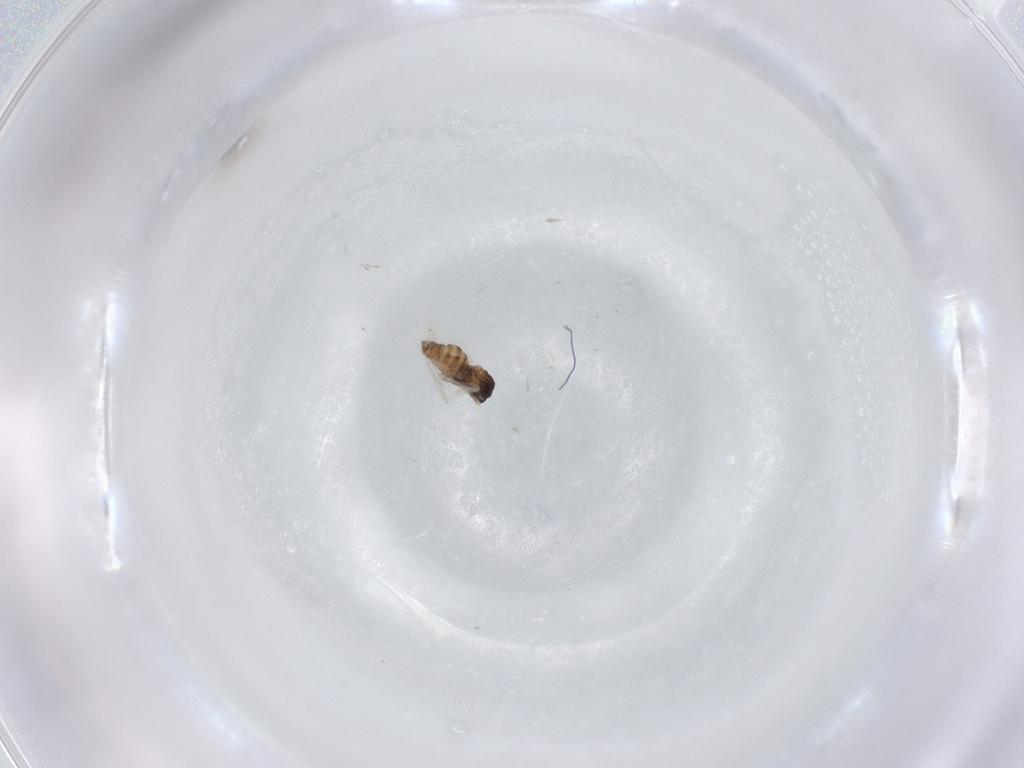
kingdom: Animalia
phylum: Arthropoda
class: Insecta
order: Diptera
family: Cecidomyiidae
